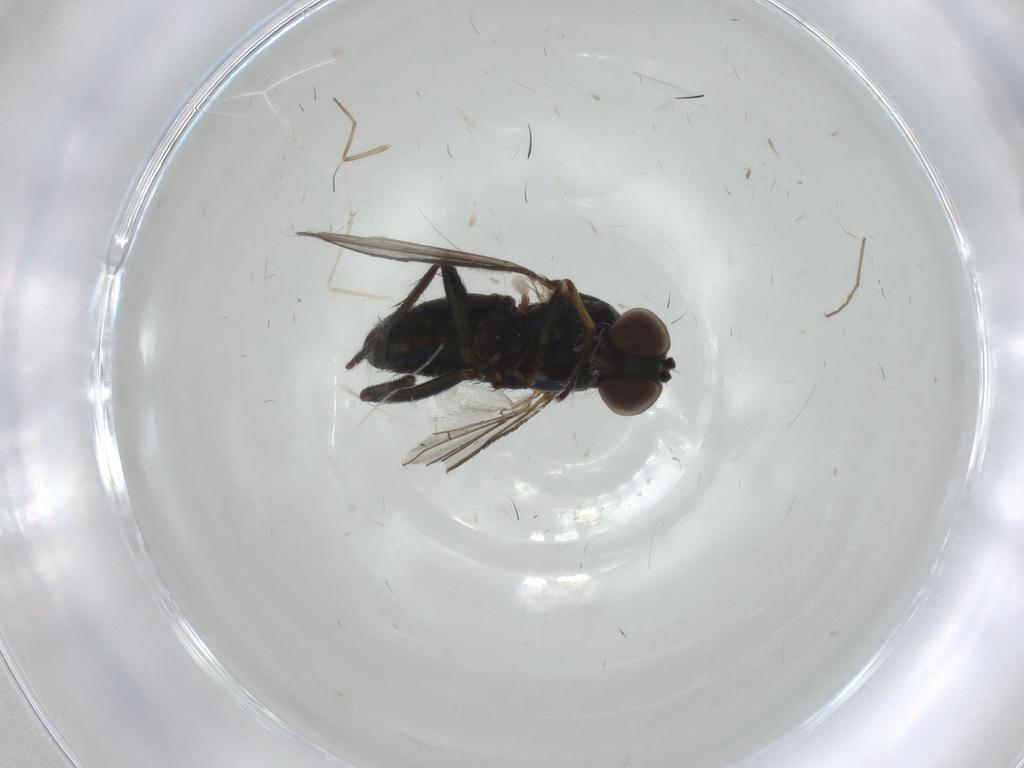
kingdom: Animalia
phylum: Arthropoda
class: Insecta
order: Diptera
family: Dolichopodidae
